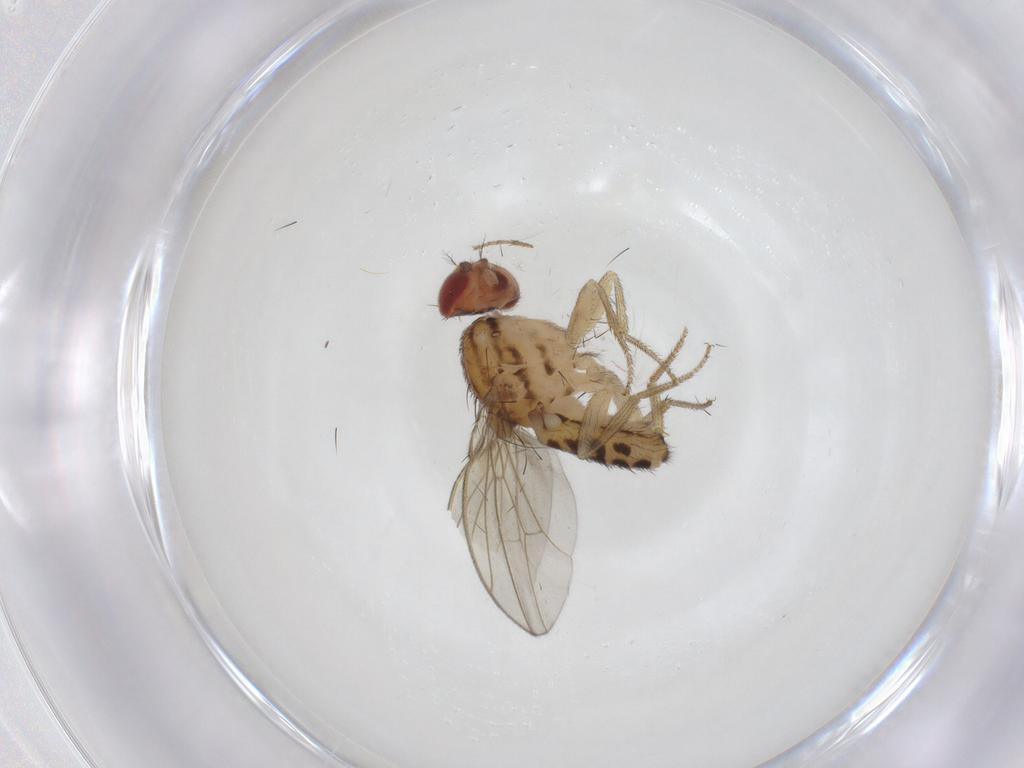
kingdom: Animalia
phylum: Arthropoda
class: Insecta
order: Diptera
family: Drosophilidae
